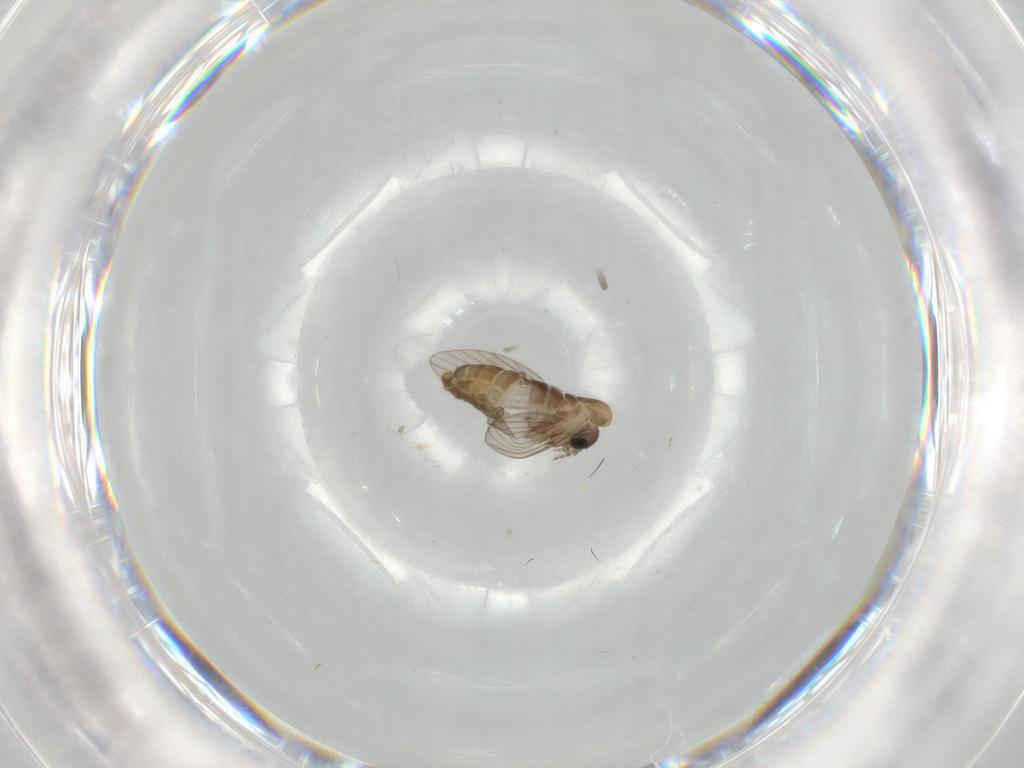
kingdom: Animalia
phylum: Arthropoda
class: Insecta
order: Diptera
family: Psychodidae
